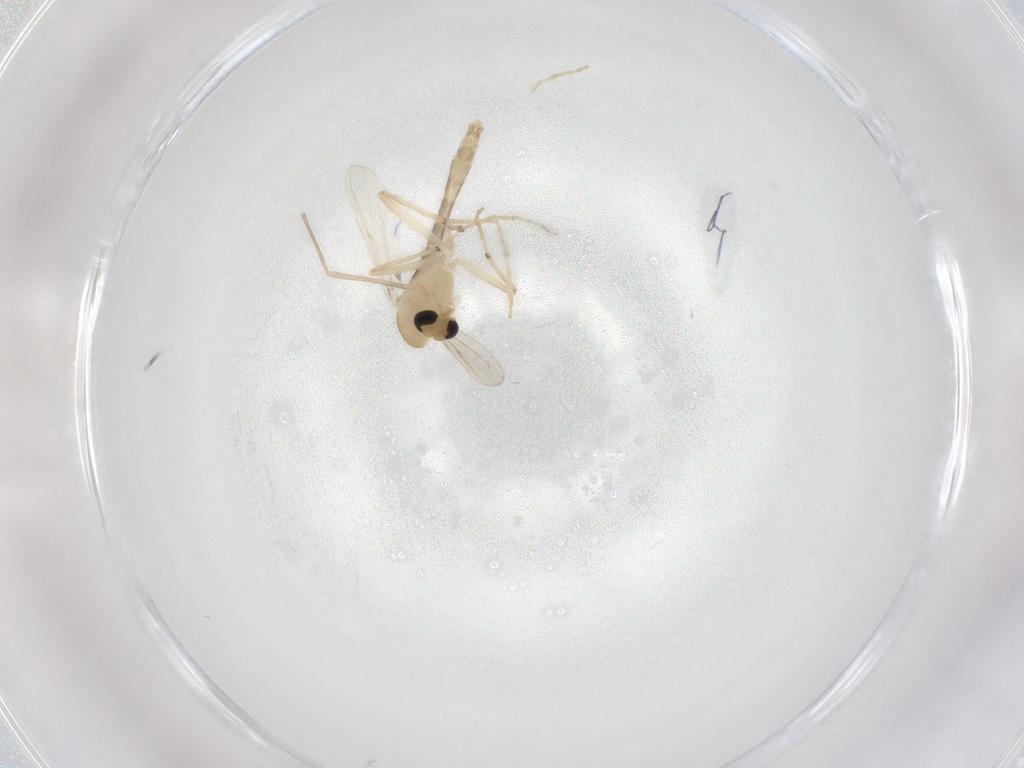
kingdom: Animalia
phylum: Arthropoda
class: Insecta
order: Diptera
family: Chironomidae
